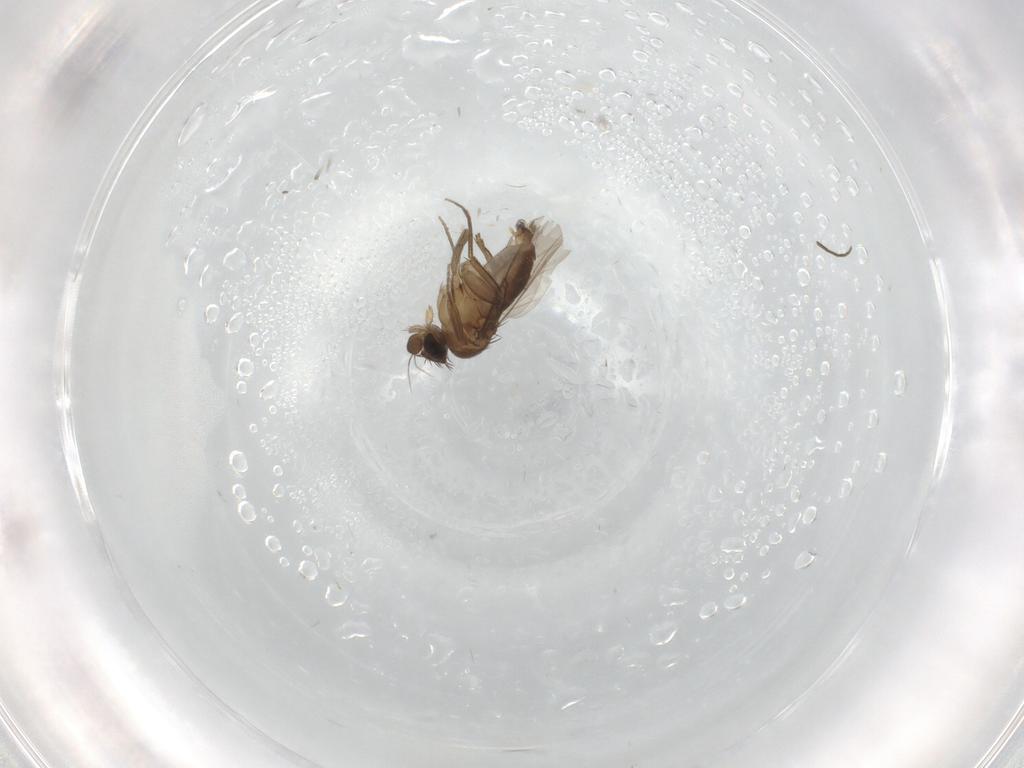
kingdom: Animalia
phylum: Arthropoda
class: Insecta
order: Diptera
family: Phoridae
